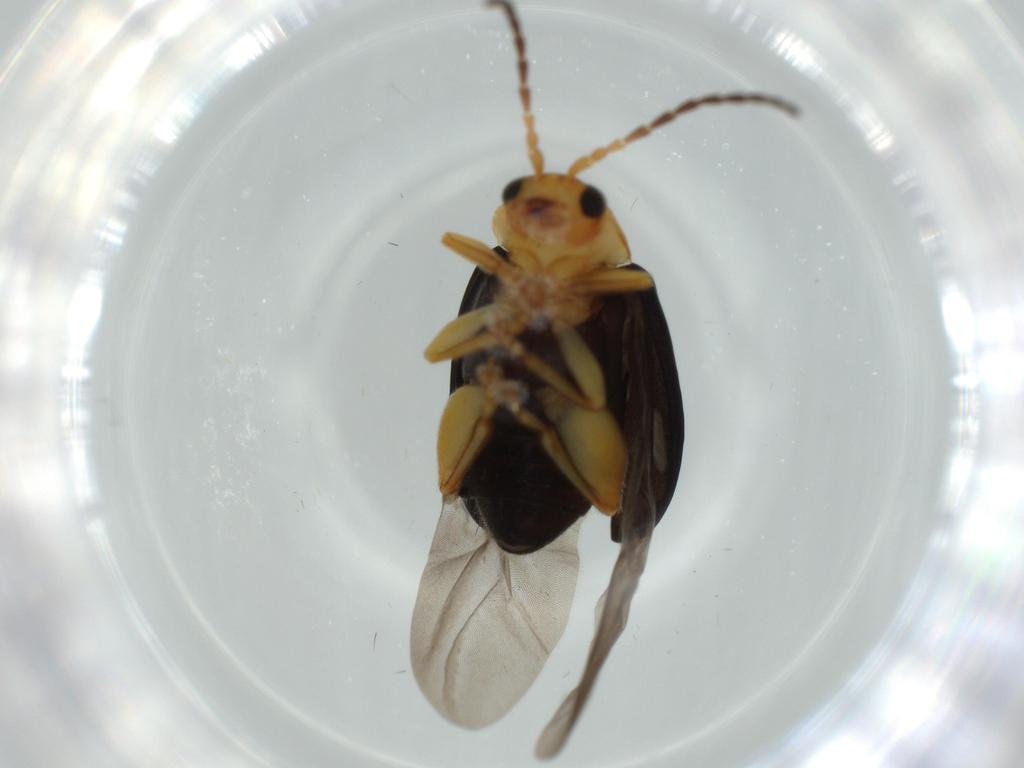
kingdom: Animalia
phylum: Arthropoda
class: Insecta
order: Coleoptera
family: Chrysomelidae
